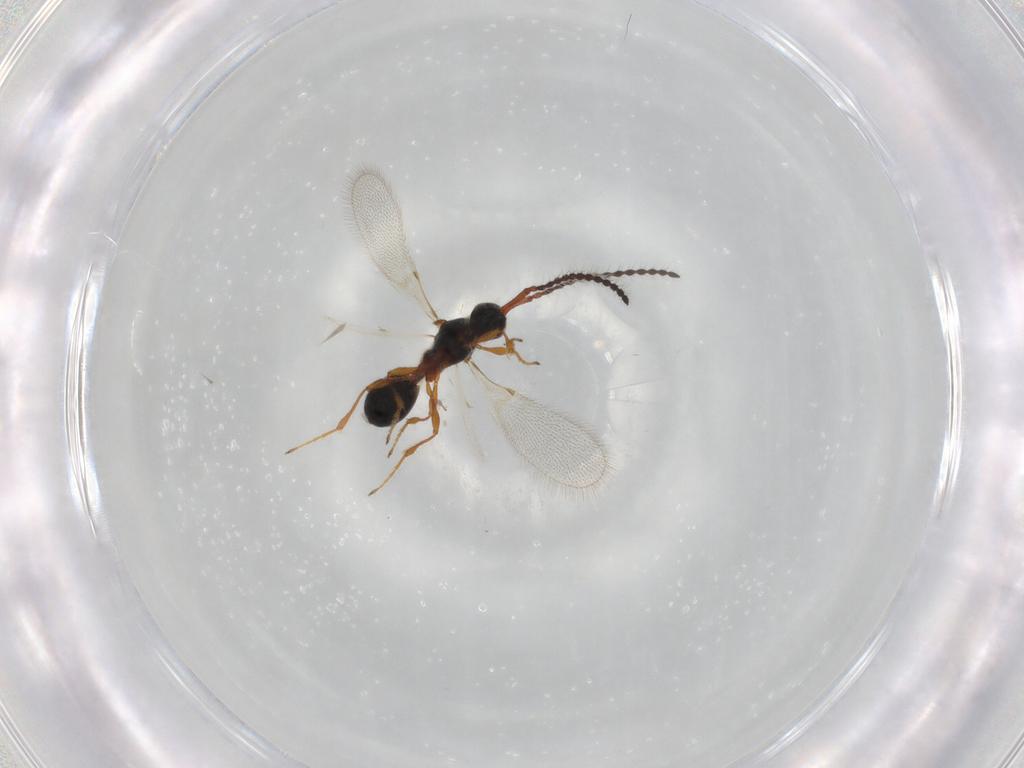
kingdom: Animalia
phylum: Arthropoda
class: Insecta
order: Hymenoptera
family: Diapriidae
